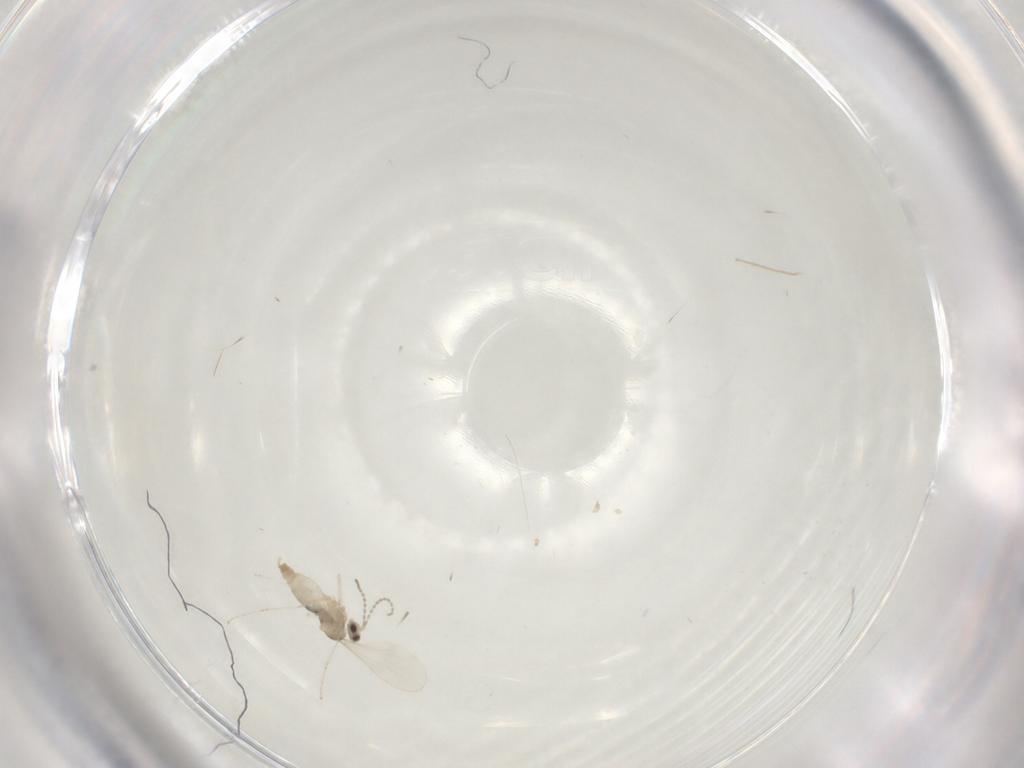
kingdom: Animalia
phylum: Arthropoda
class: Insecta
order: Diptera
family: Cecidomyiidae
